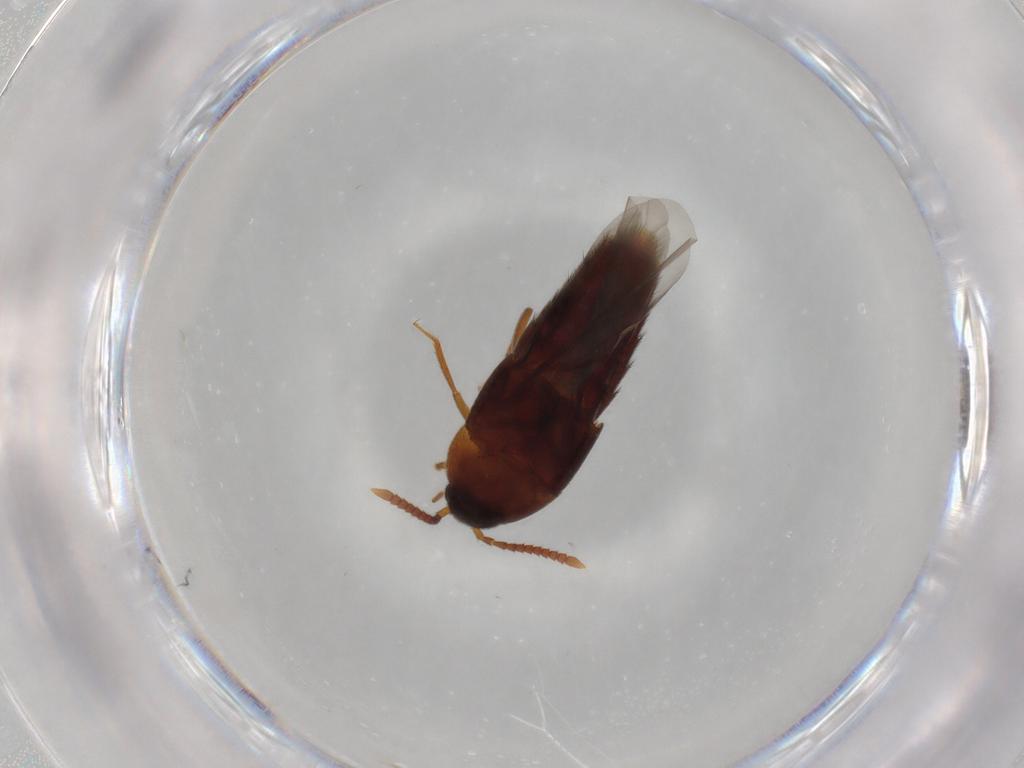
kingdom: Animalia
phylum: Arthropoda
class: Insecta
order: Coleoptera
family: Staphylinidae
